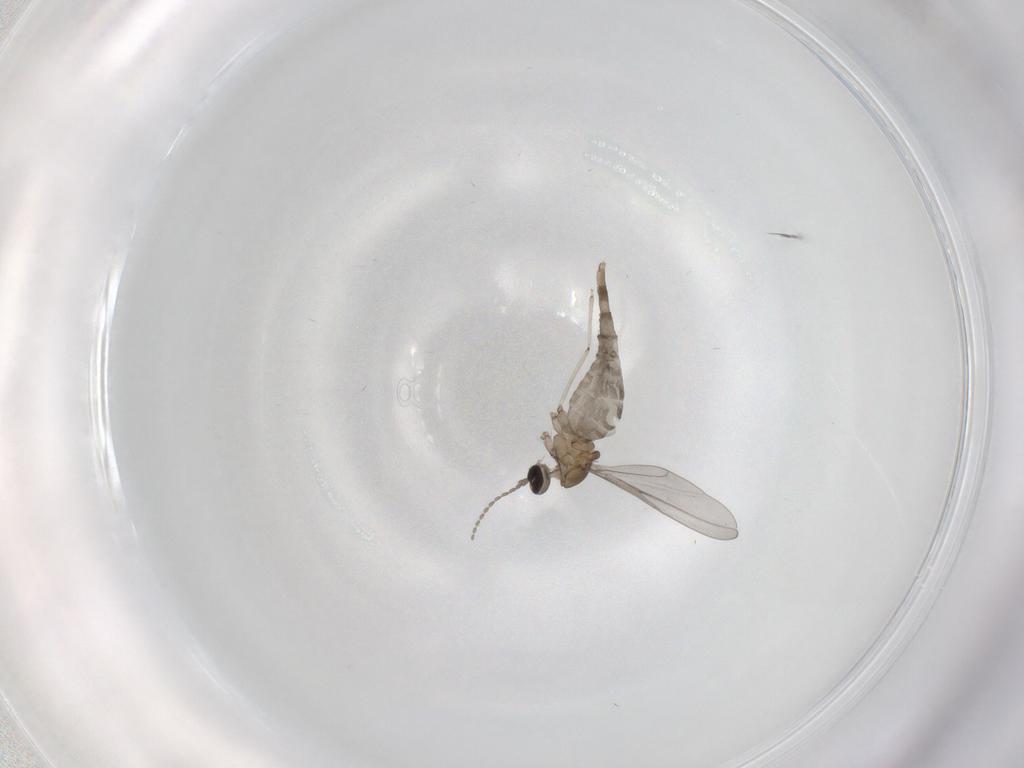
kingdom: Animalia
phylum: Arthropoda
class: Insecta
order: Diptera
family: Cecidomyiidae
